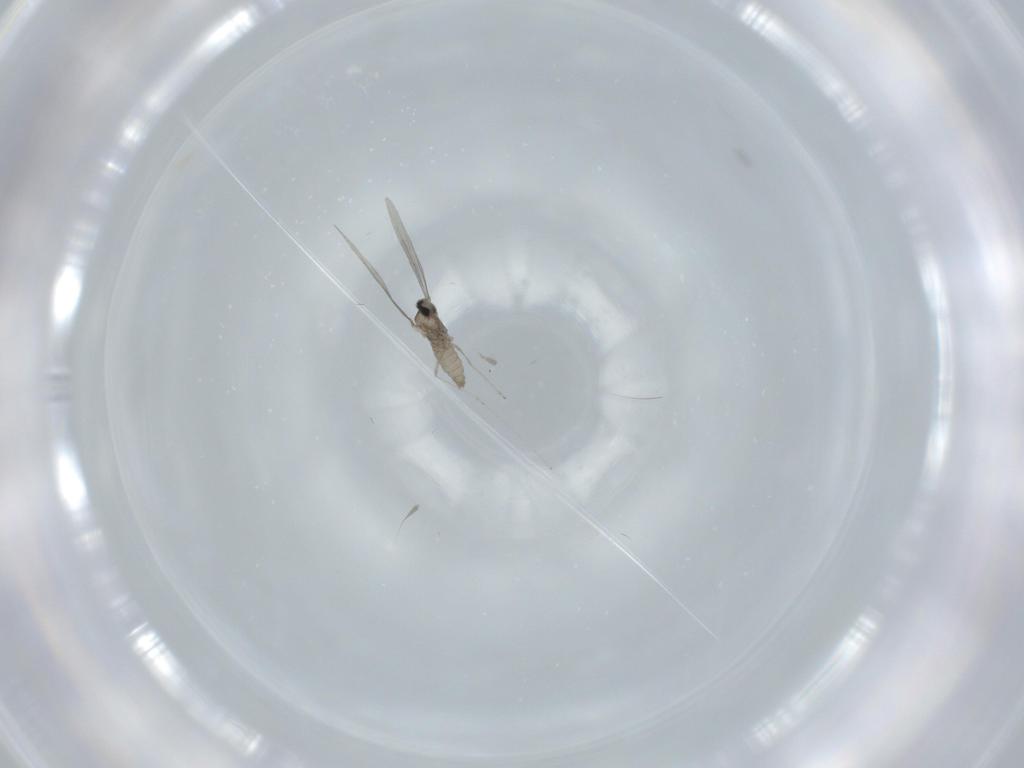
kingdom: Animalia
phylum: Arthropoda
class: Insecta
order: Diptera
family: Cecidomyiidae
